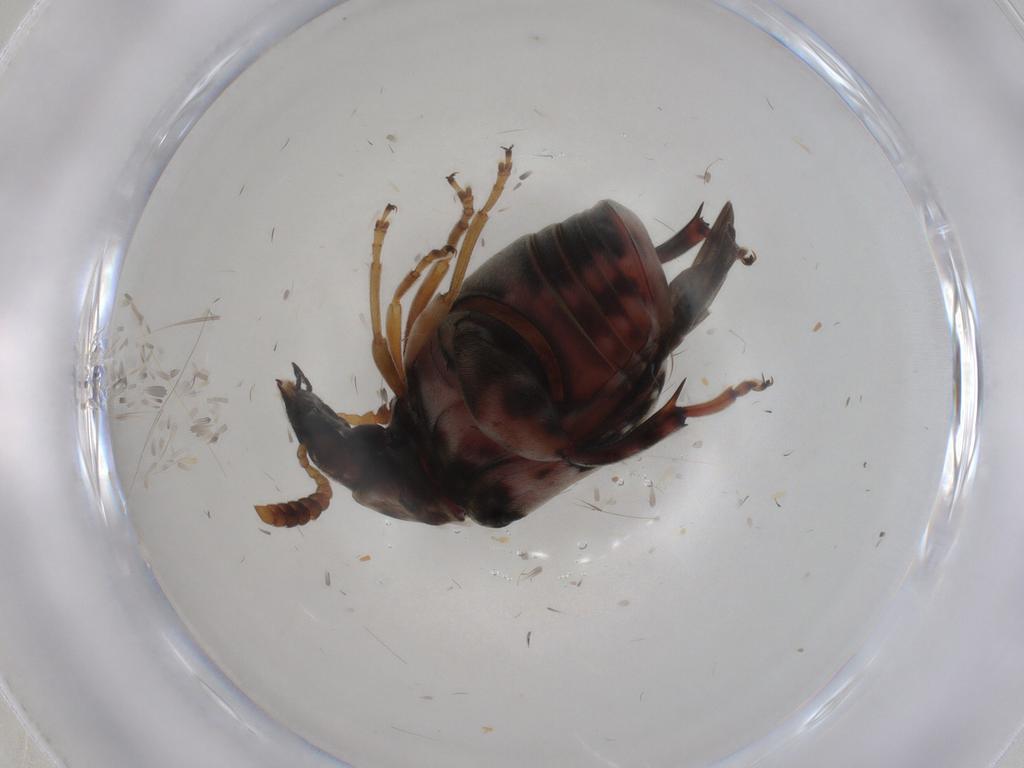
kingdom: Animalia
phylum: Arthropoda
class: Insecta
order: Coleoptera
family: Chrysomelidae
